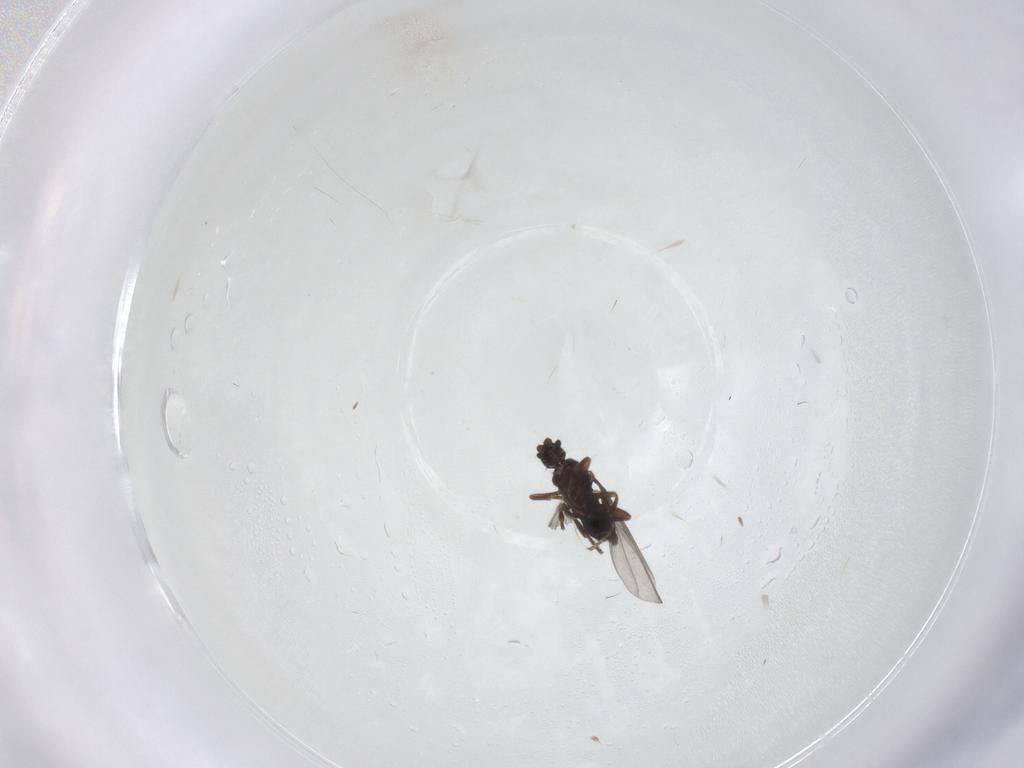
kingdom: Animalia
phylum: Arthropoda
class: Insecta
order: Diptera
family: Phoridae
